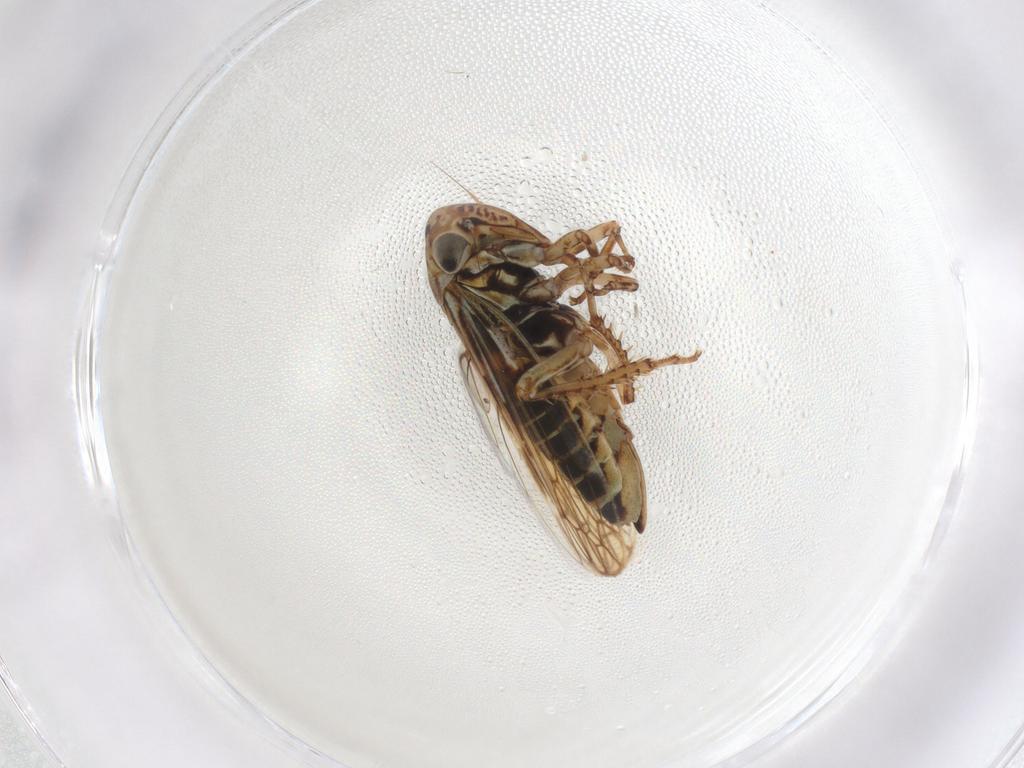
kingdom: Animalia
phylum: Arthropoda
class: Insecta
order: Hemiptera
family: Cicadellidae
